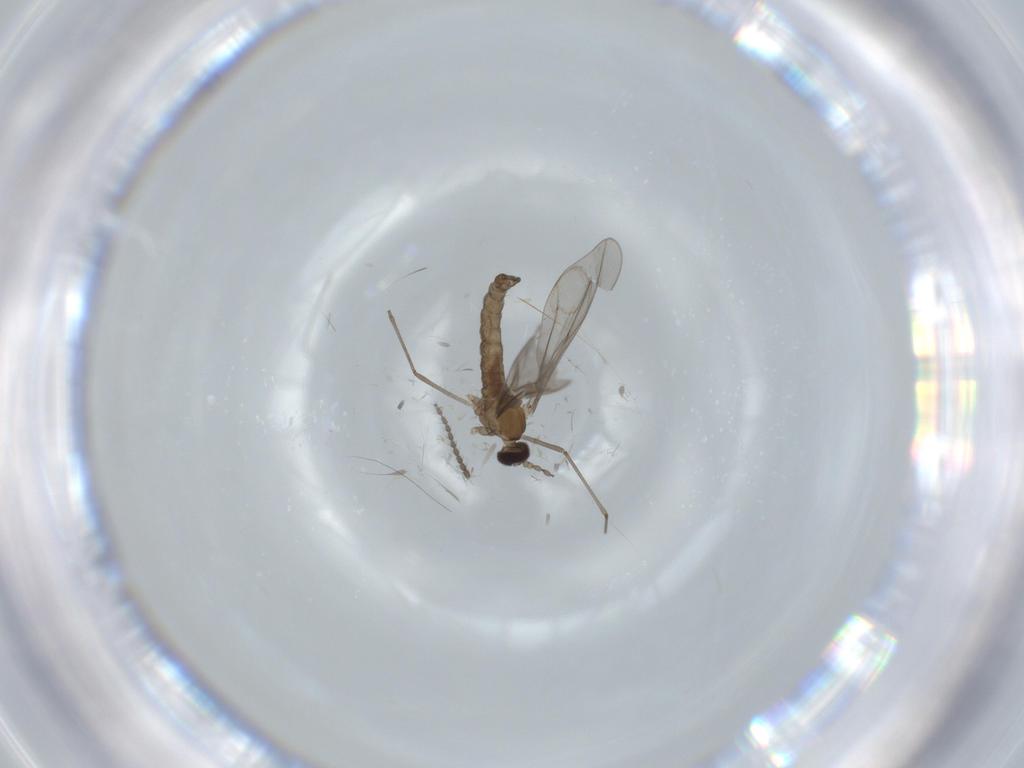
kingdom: Animalia
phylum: Arthropoda
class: Insecta
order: Diptera
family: Cecidomyiidae
